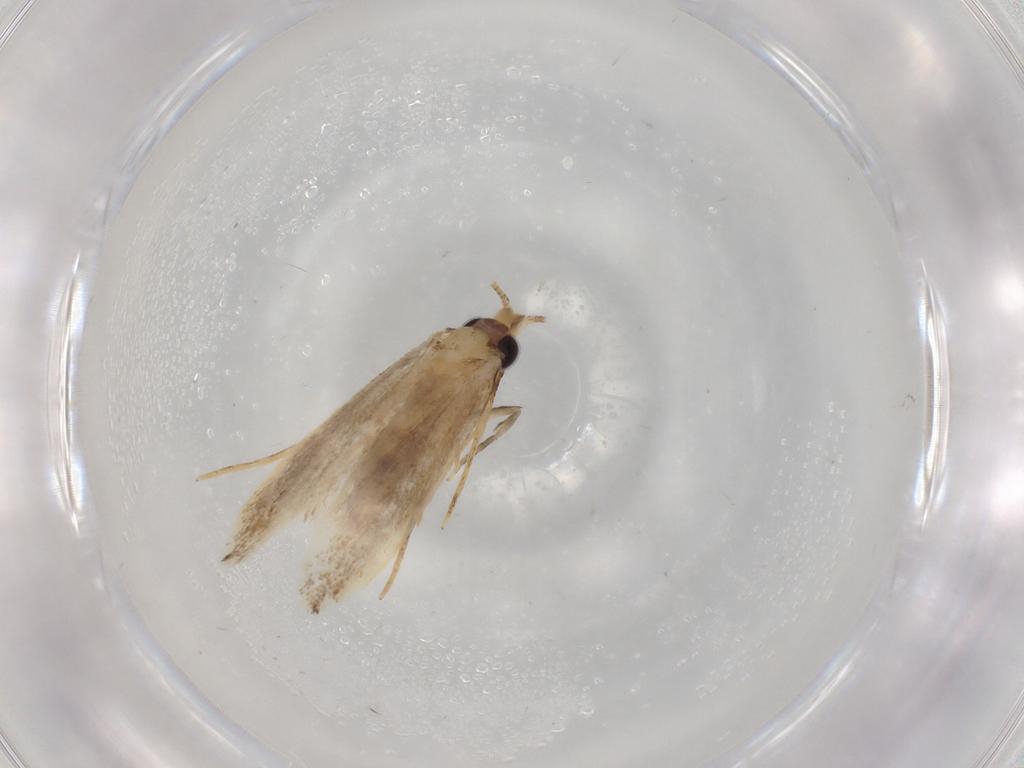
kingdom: Animalia
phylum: Arthropoda
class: Insecta
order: Lepidoptera
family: Nepticulidae
